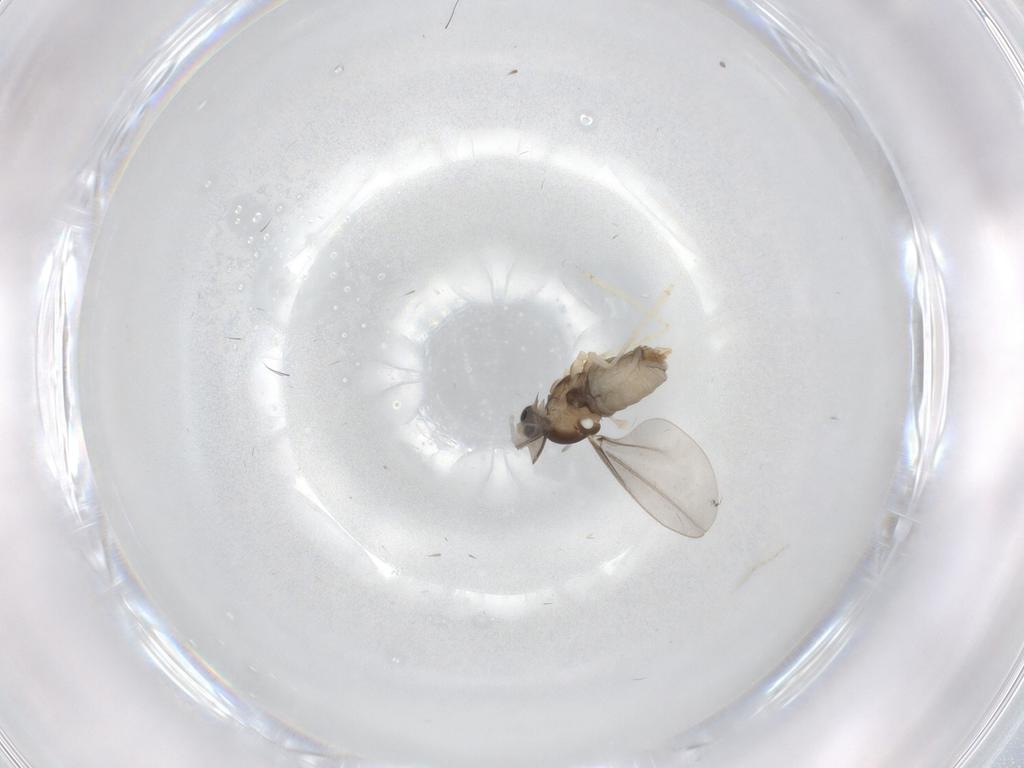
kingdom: Animalia
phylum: Arthropoda
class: Insecta
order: Diptera
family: Cecidomyiidae
